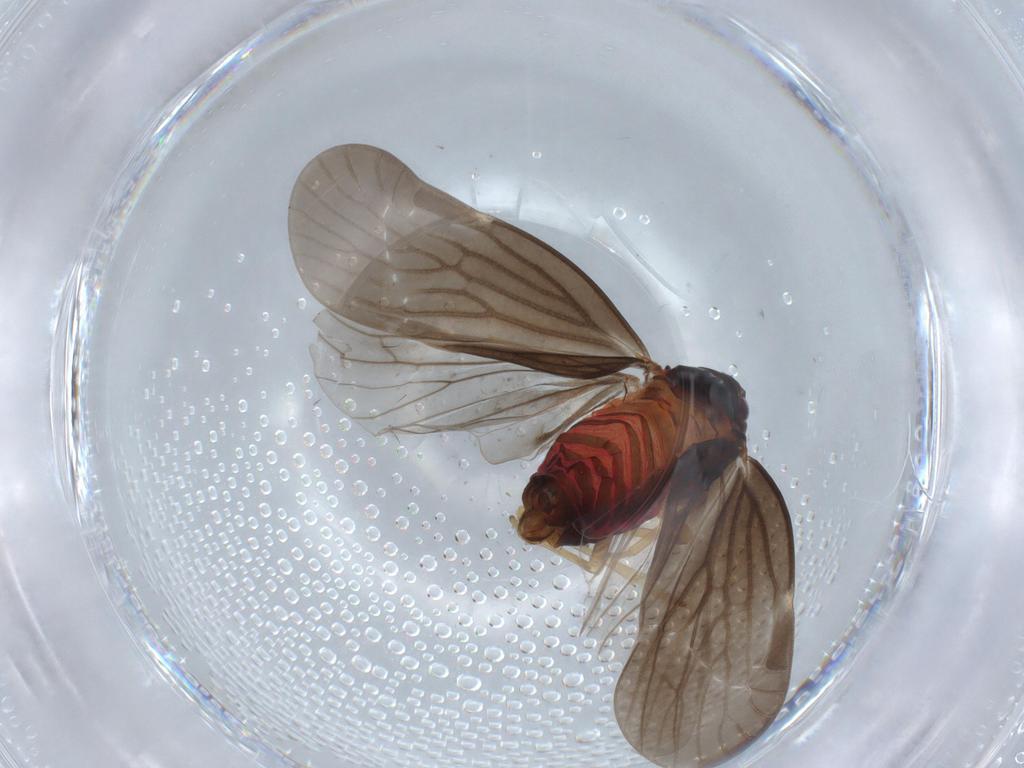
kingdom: Animalia
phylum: Arthropoda
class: Insecta
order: Hemiptera
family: Derbidae
